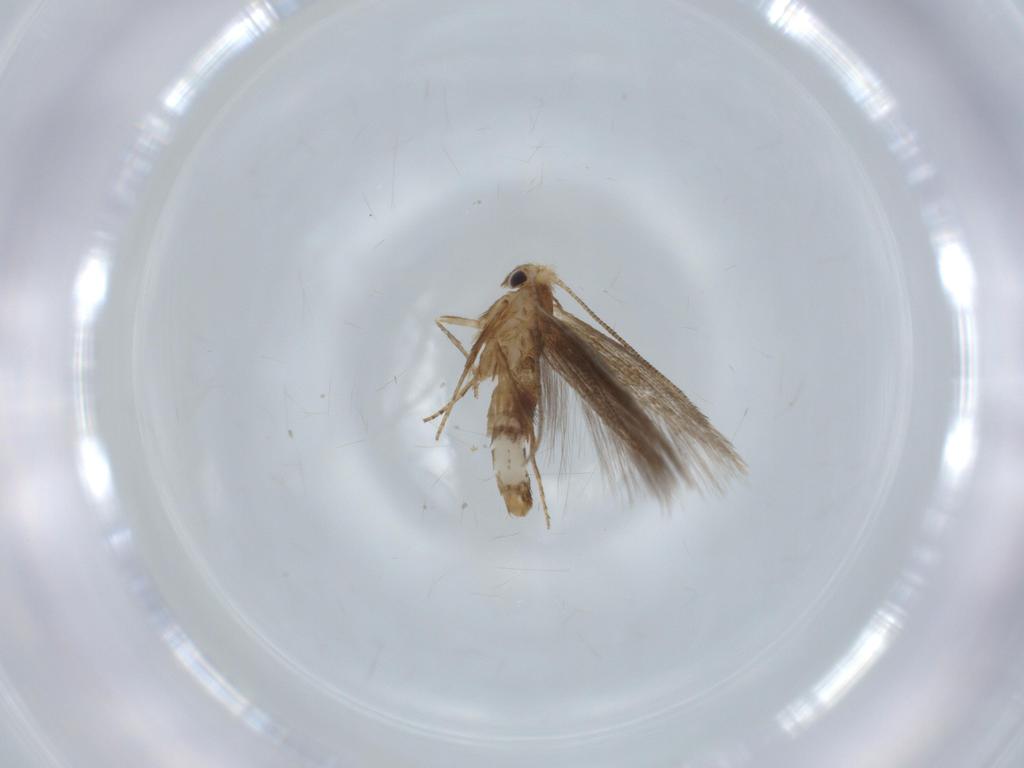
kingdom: Animalia
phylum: Arthropoda
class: Insecta
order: Lepidoptera
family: Bucculatricidae
